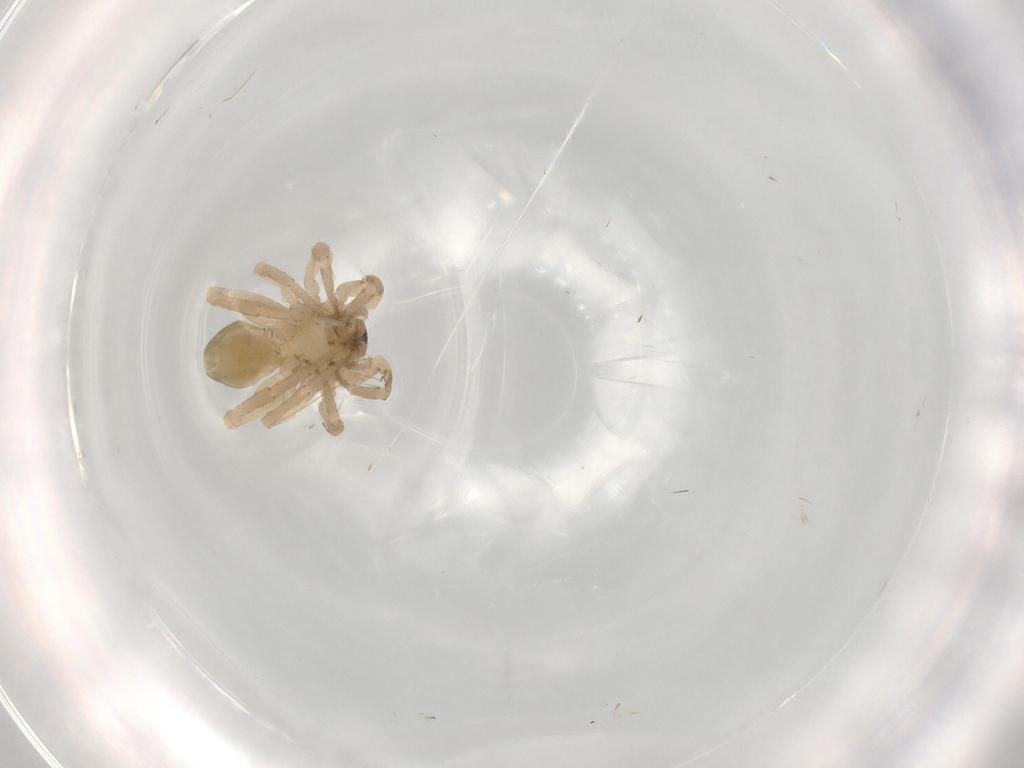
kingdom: Animalia
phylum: Arthropoda
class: Arachnida
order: Araneae
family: Anyphaenidae
